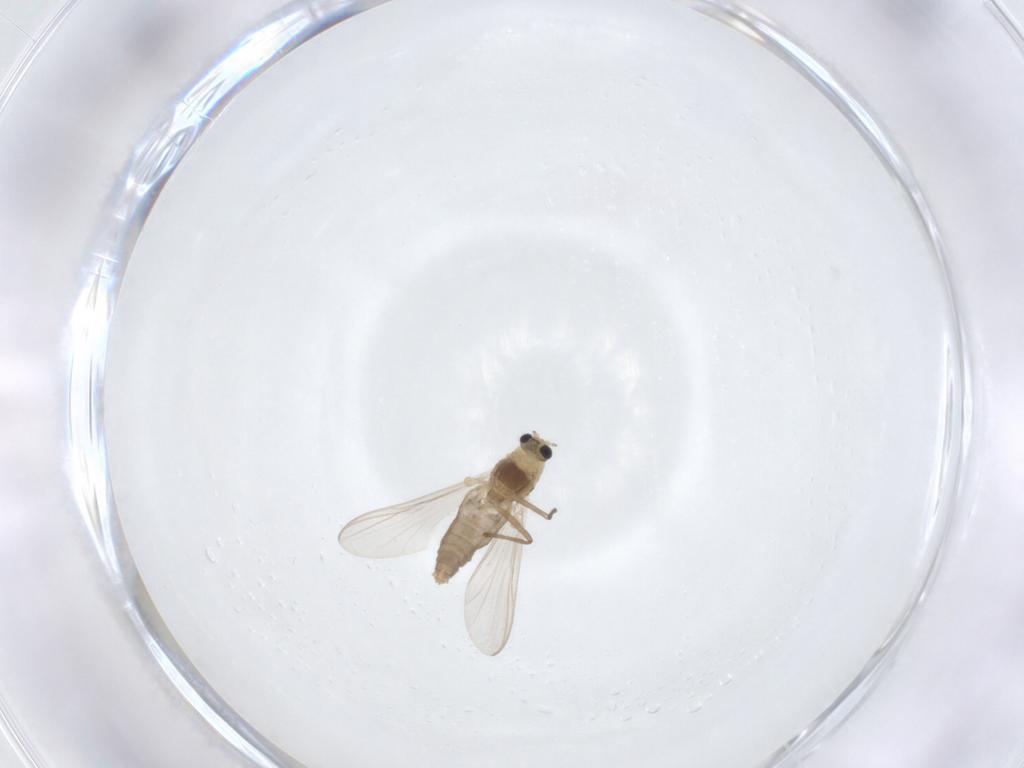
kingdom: Animalia
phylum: Arthropoda
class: Insecta
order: Diptera
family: Chironomidae
